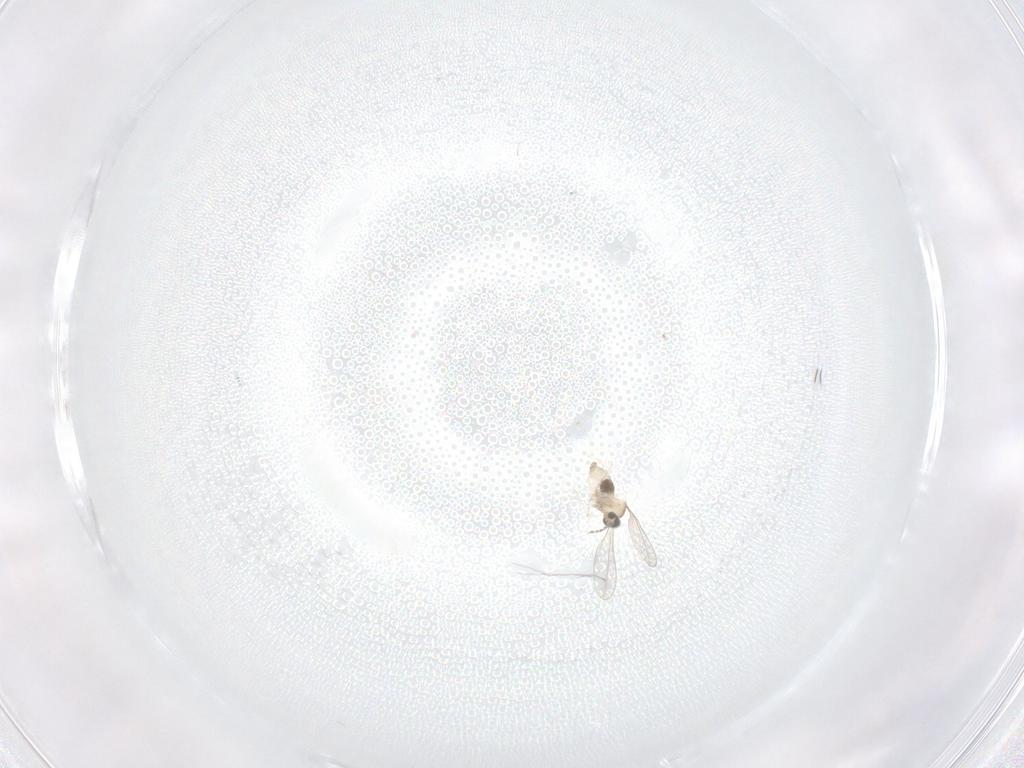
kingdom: Animalia
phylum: Arthropoda
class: Insecta
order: Diptera
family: Cecidomyiidae
